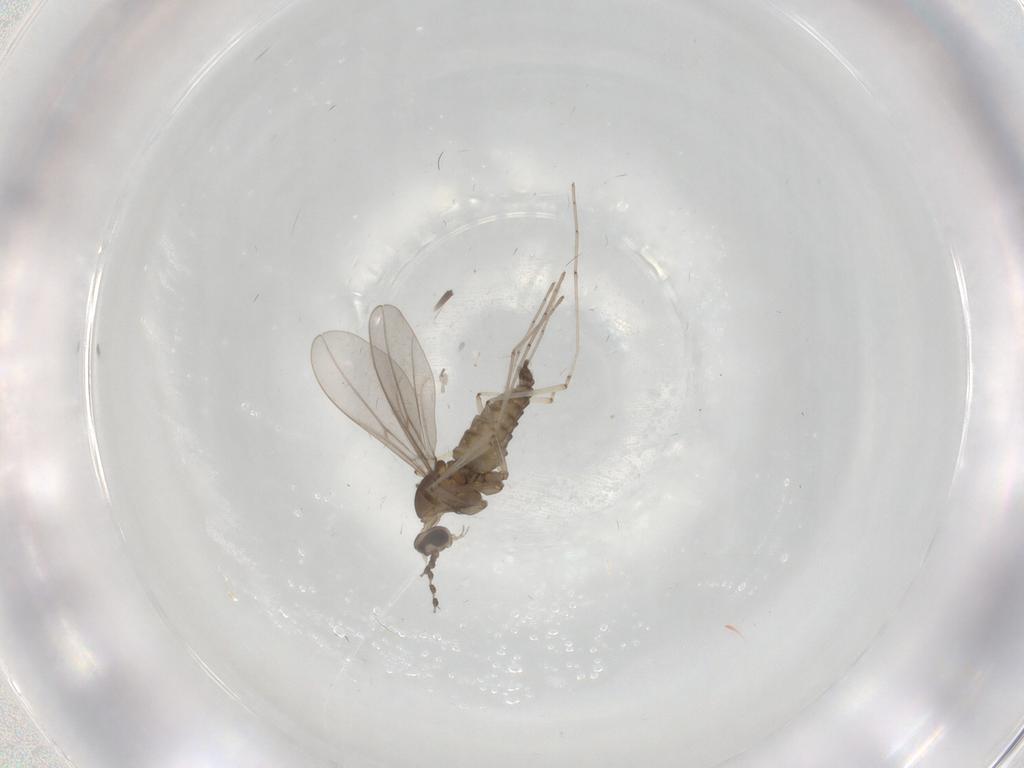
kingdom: Animalia
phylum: Arthropoda
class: Insecta
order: Diptera
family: Cecidomyiidae
